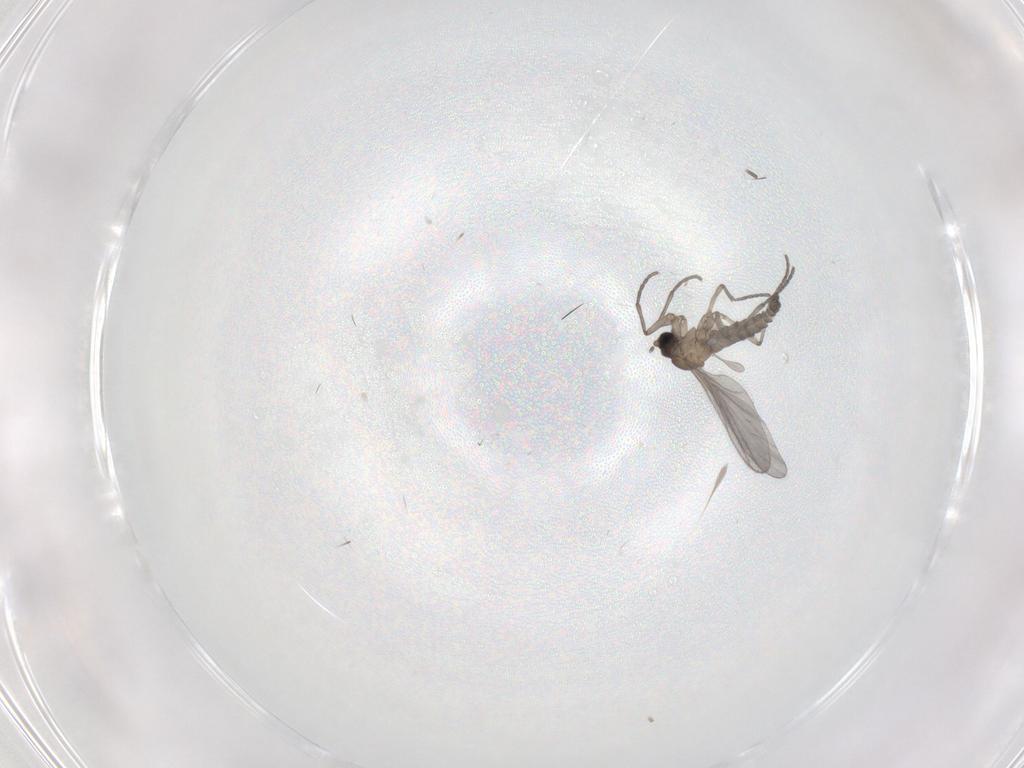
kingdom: Animalia
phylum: Arthropoda
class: Insecta
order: Diptera
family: Sciaridae
